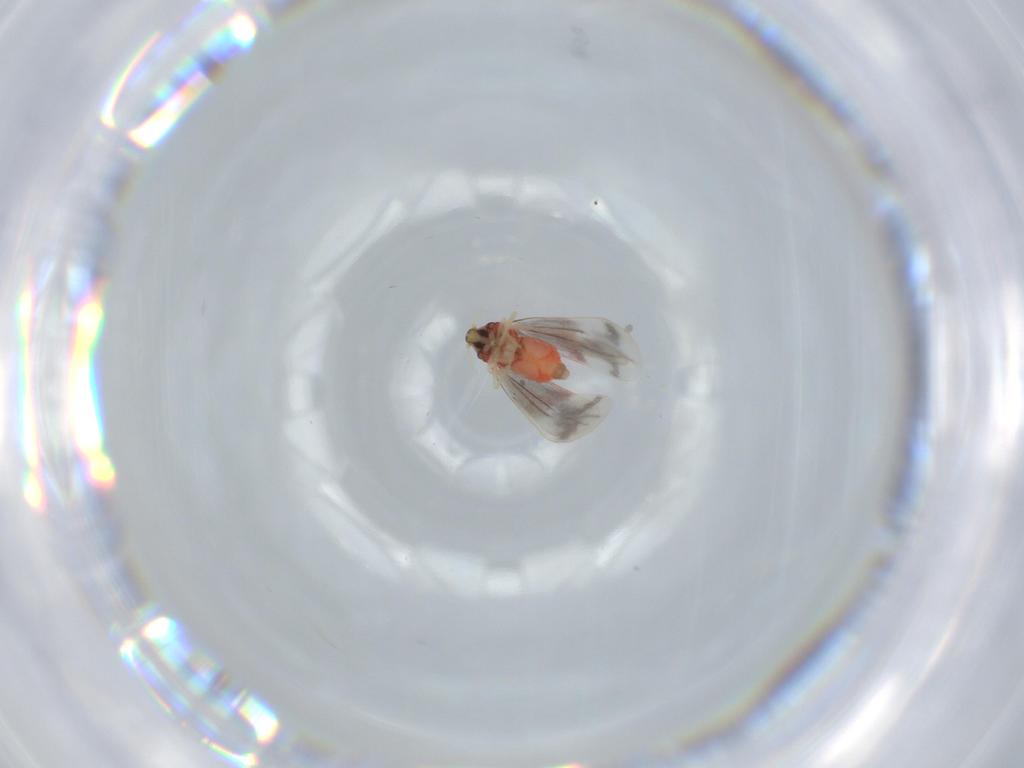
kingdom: Animalia
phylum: Arthropoda
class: Insecta
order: Hemiptera
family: Aleyrodidae
